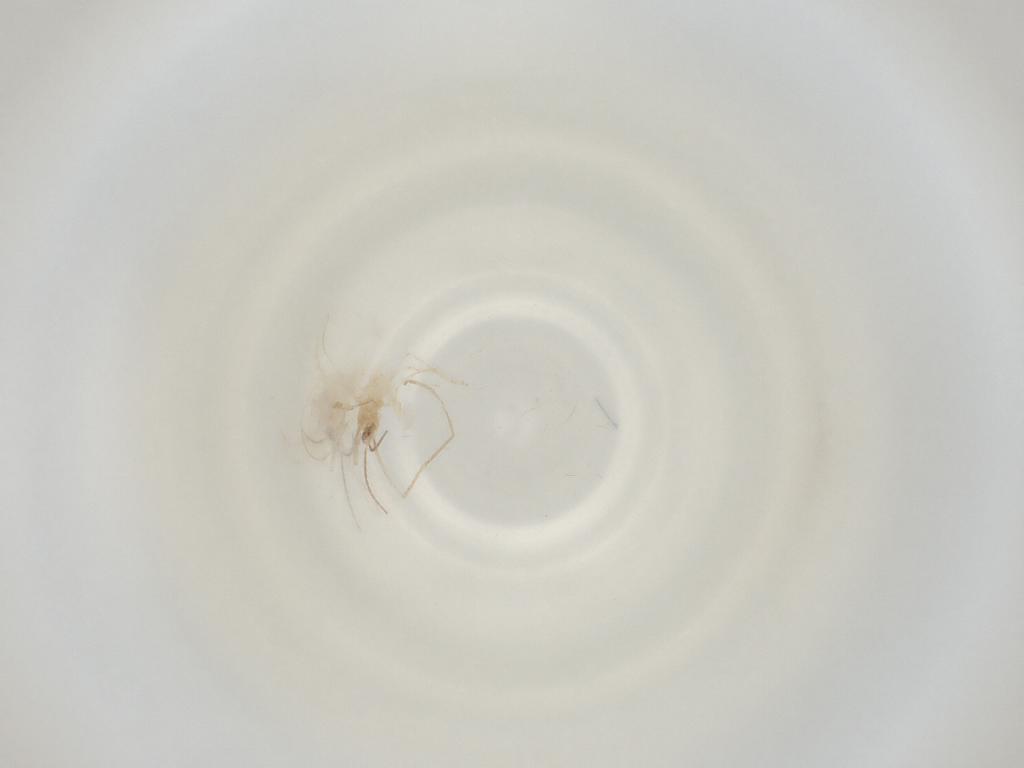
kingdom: Animalia
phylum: Arthropoda
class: Insecta
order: Diptera
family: Cecidomyiidae
